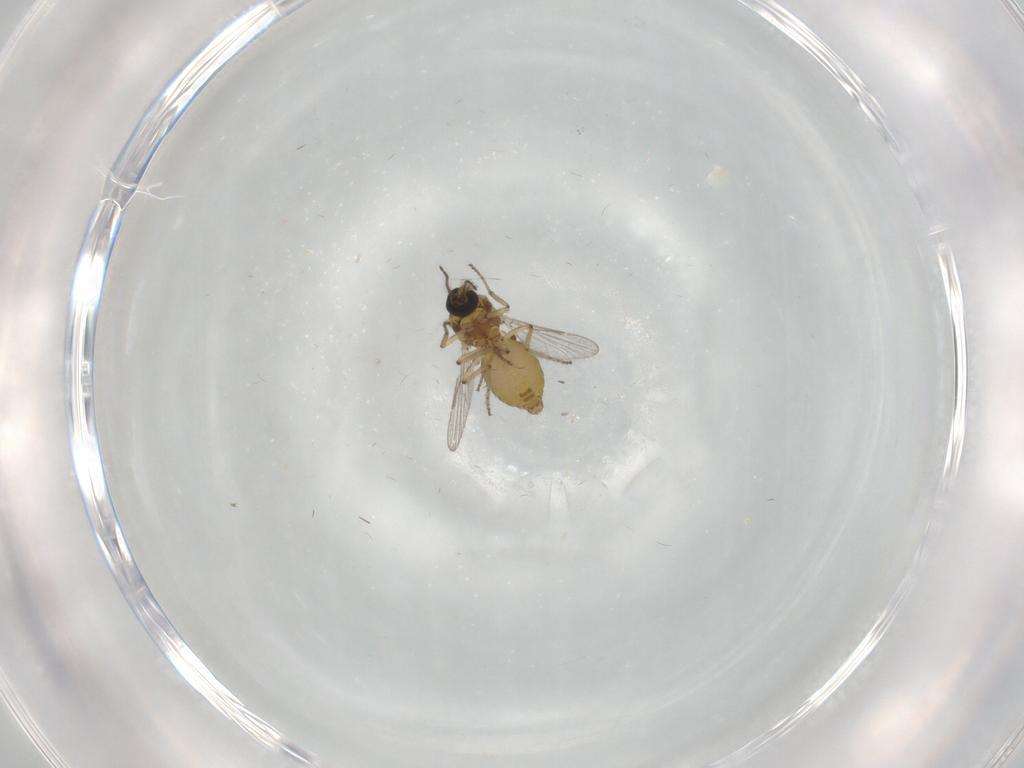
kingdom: Animalia
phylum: Arthropoda
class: Insecta
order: Diptera
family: Ceratopogonidae
